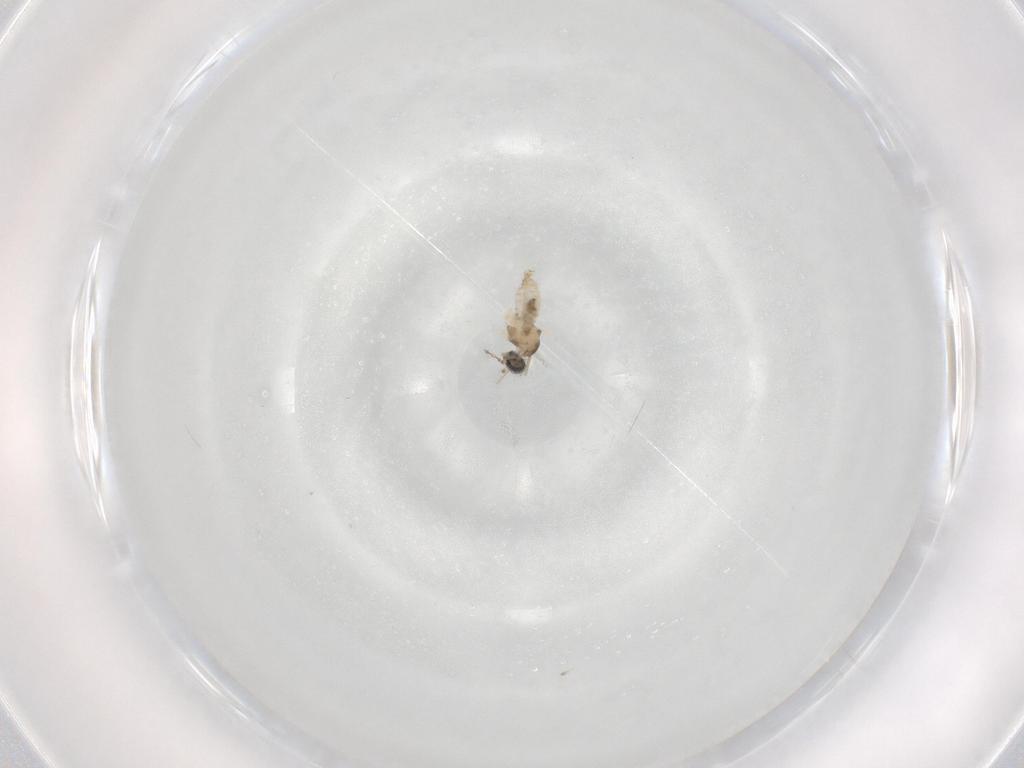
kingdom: Animalia
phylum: Arthropoda
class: Insecta
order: Diptera
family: Cecidomyiidae
